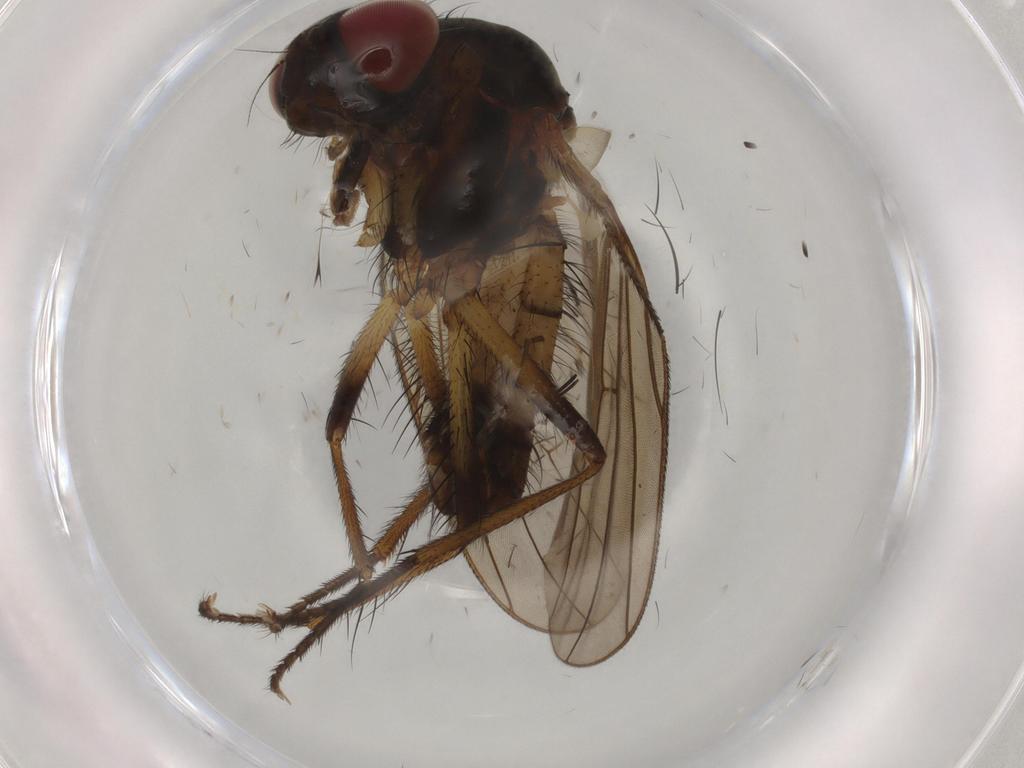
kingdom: Animalia
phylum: Arthropoda
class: Insecta
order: Diptera
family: Anthomyiidae
